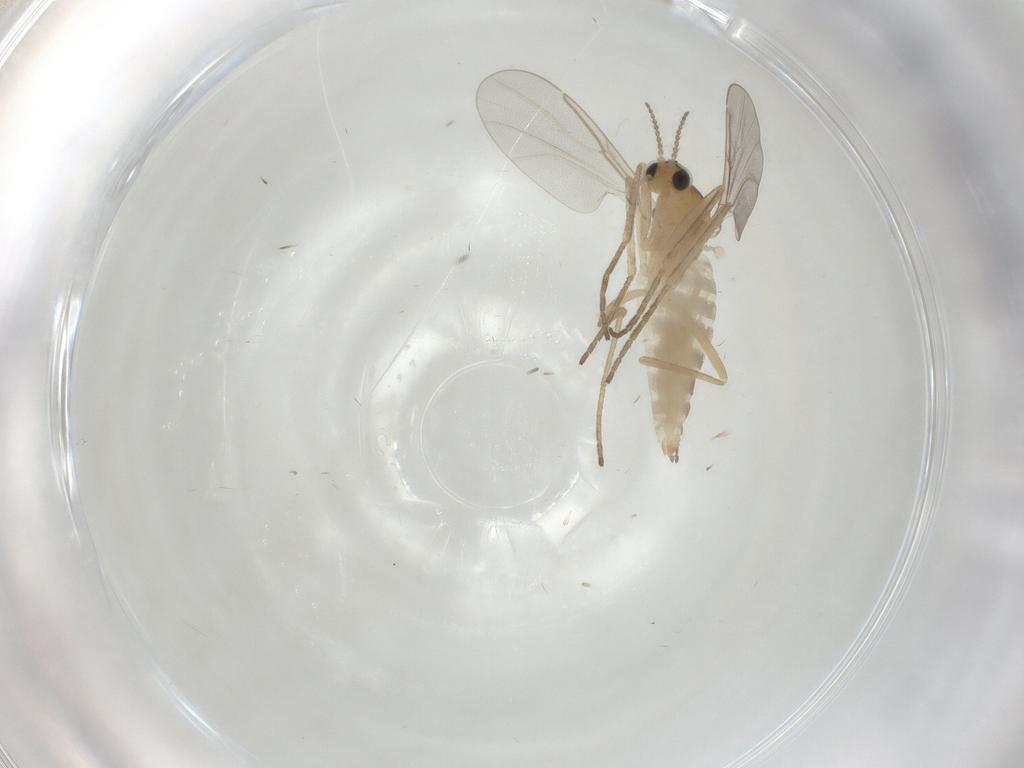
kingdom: Animalia
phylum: Arthropoda
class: Insecta
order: Diptera
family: Cecidomyiidae
